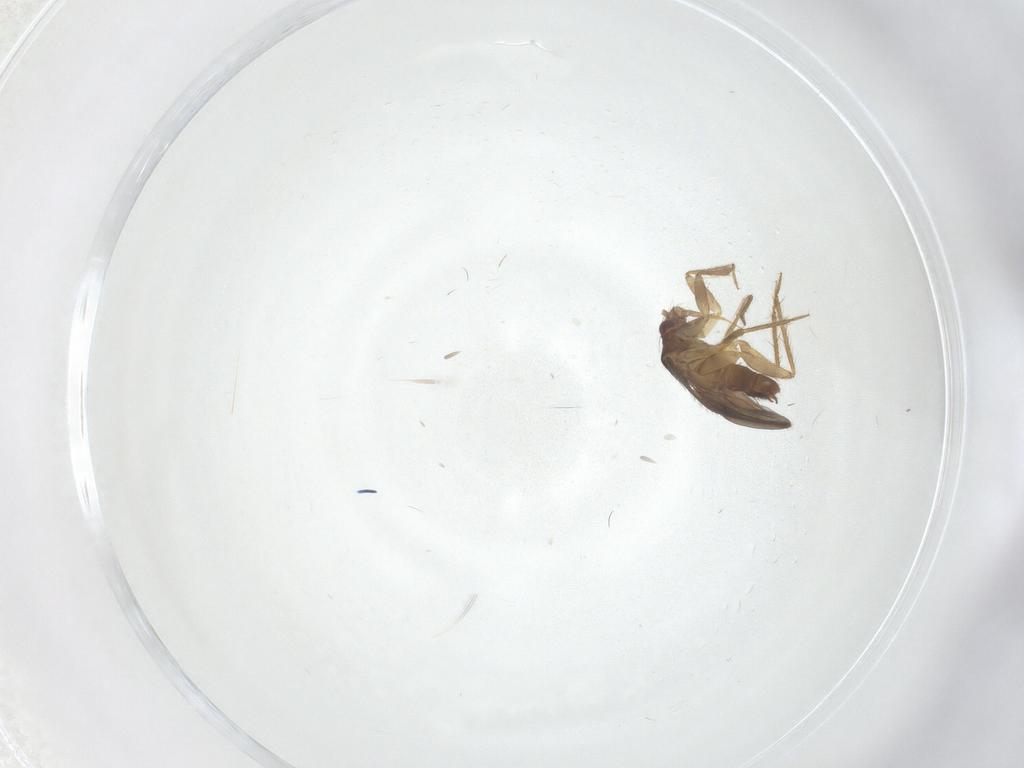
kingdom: Animalia
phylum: Arthropoda
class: Insecta
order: Hemiptera
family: Ceratocombidae
